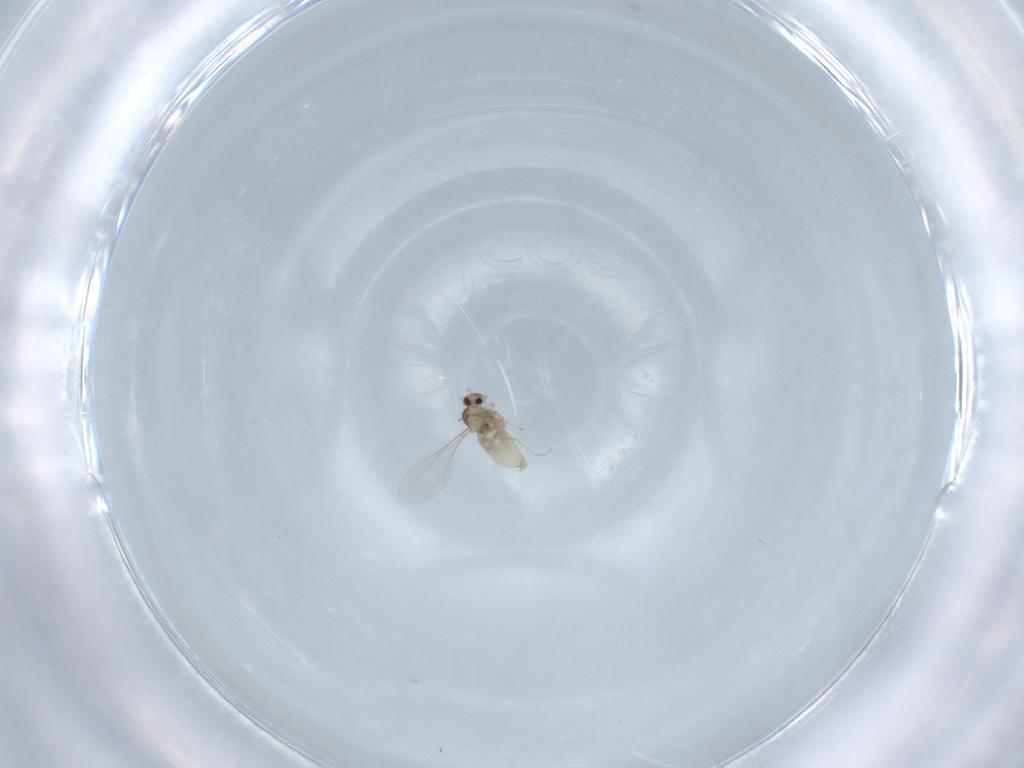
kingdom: Animalia
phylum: Arthropoda
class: Insecta
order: Diptera
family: Cecidomyiidae
